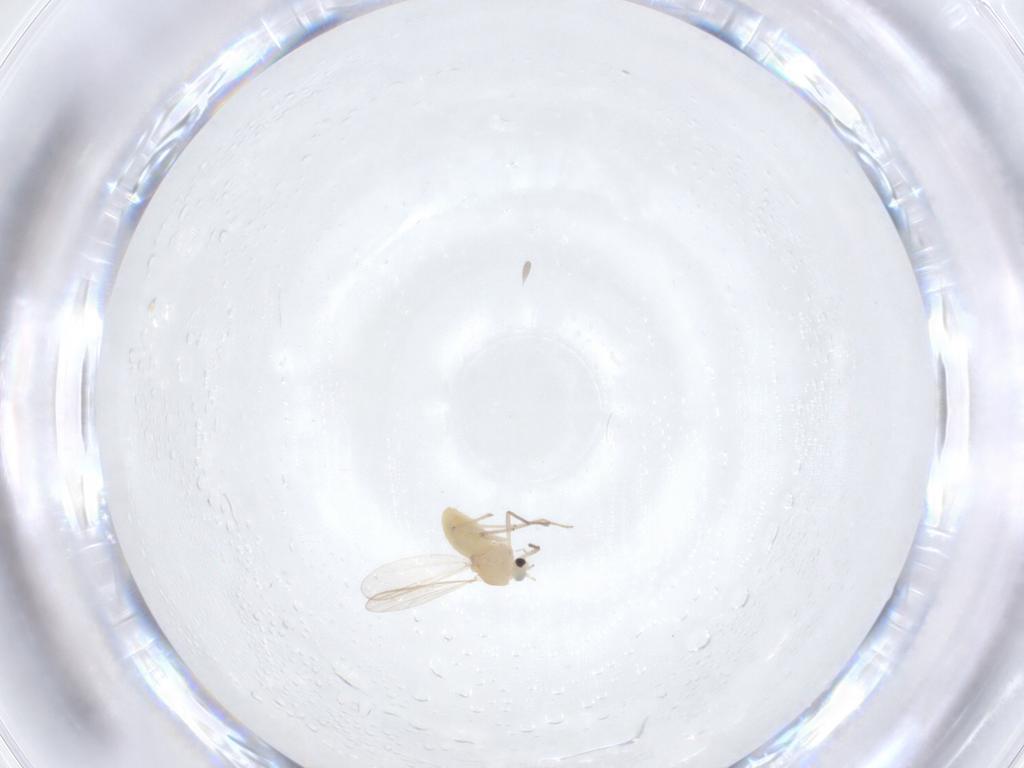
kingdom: Animalia
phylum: Arthropoda
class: Insecta
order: Diptera
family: Chironomidae
